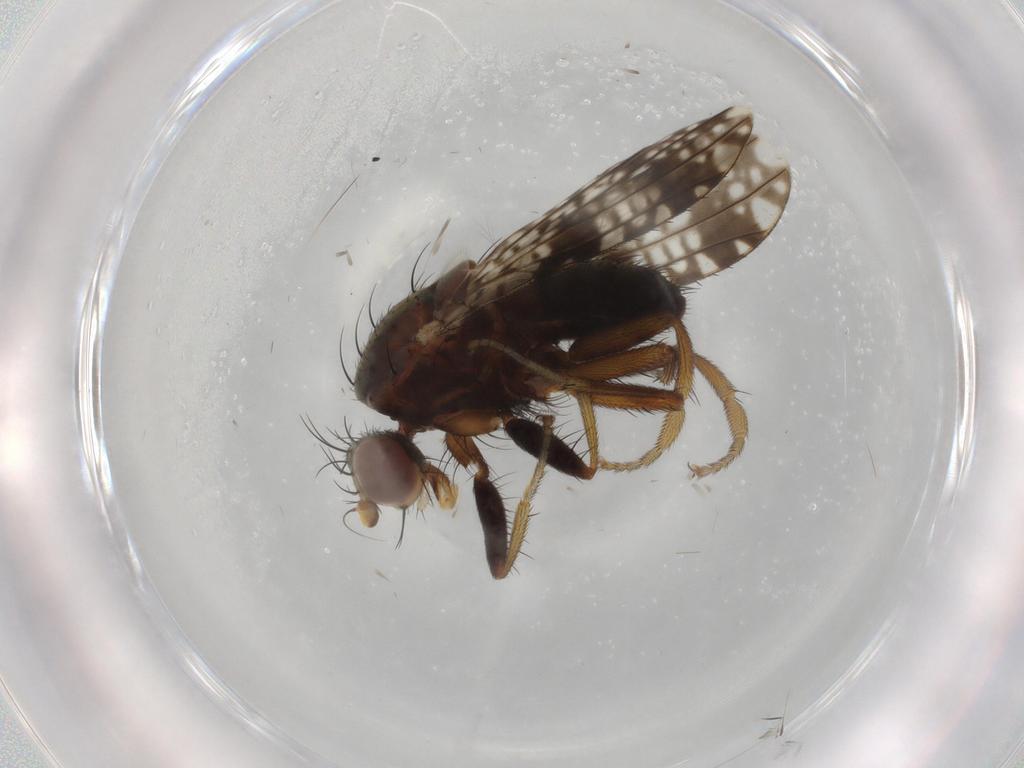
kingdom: Animalia
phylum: Arthropoda
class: Insecta
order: Diptera
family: Tephritidae
